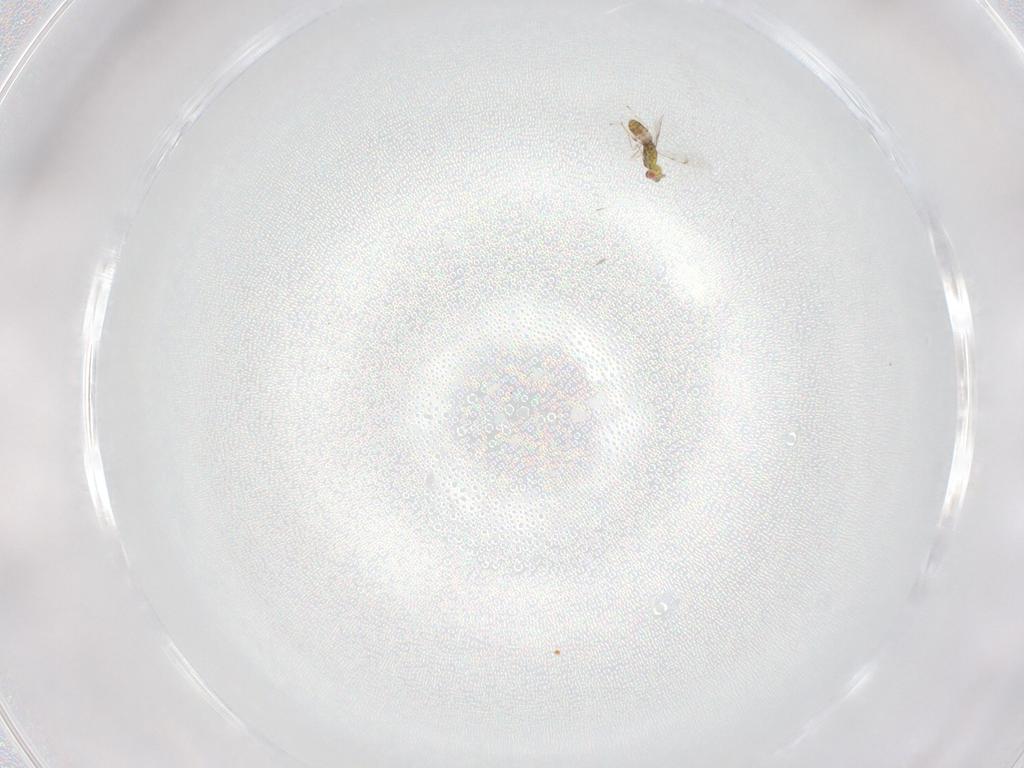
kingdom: Animalia
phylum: Arthropoda
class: Insecta
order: Hymenoptera
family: Eulophidae
